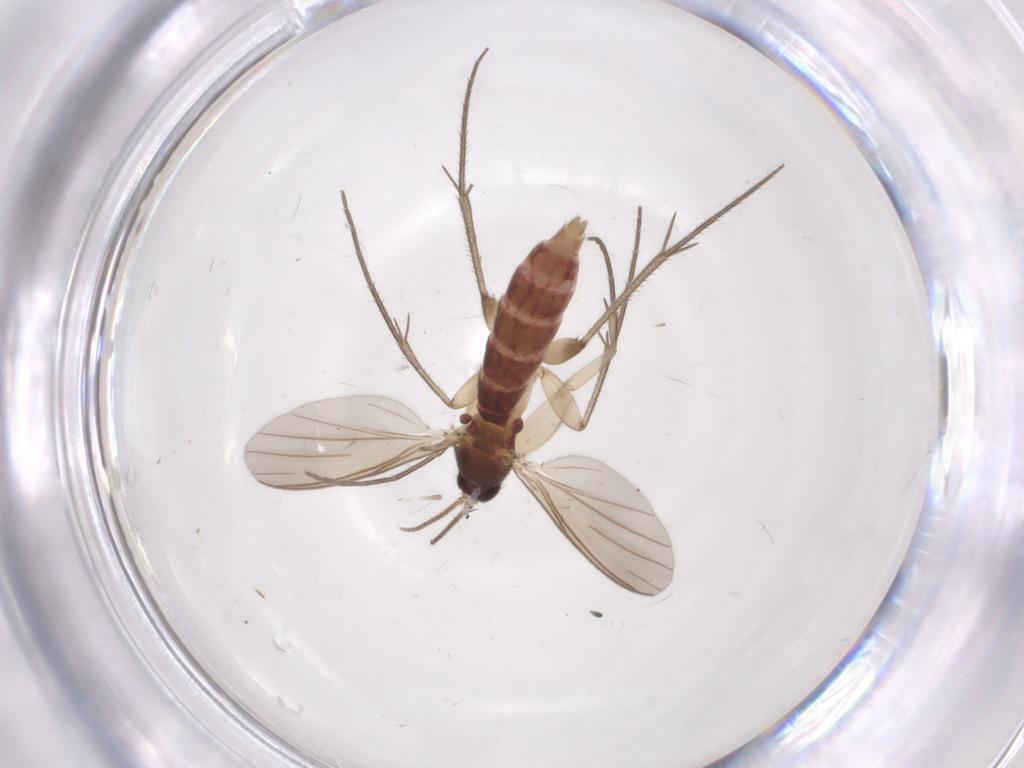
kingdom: Animalia
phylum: Arthropoda
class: Insecta
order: Diptera
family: Mycetophilidae
